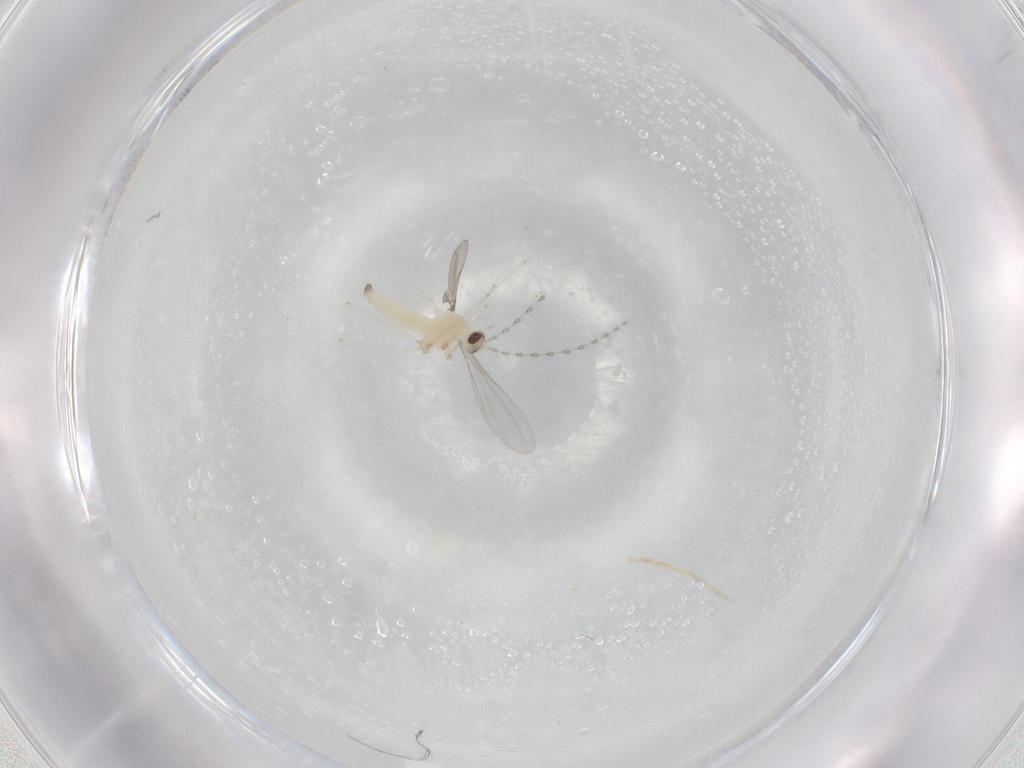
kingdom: Animalia
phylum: Arthropoda
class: Insecta
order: Diptera
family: Cecidomyiidae
